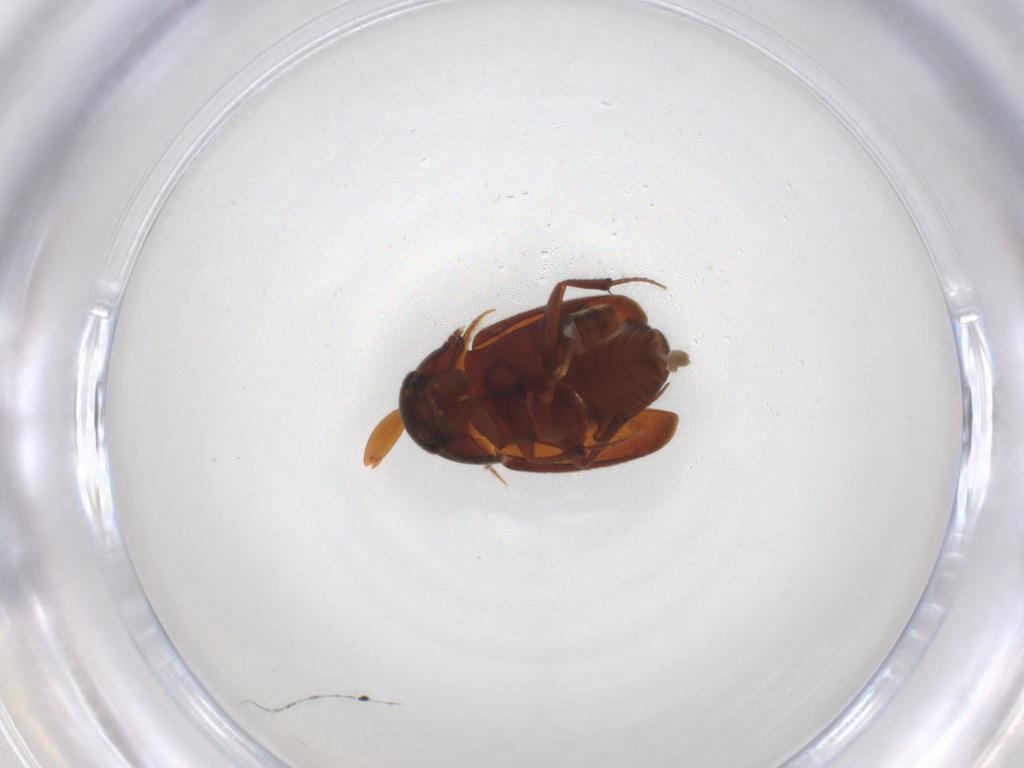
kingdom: Animalia
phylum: Arthropoda
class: Insecta
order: Coleoptera
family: Leiodidae
